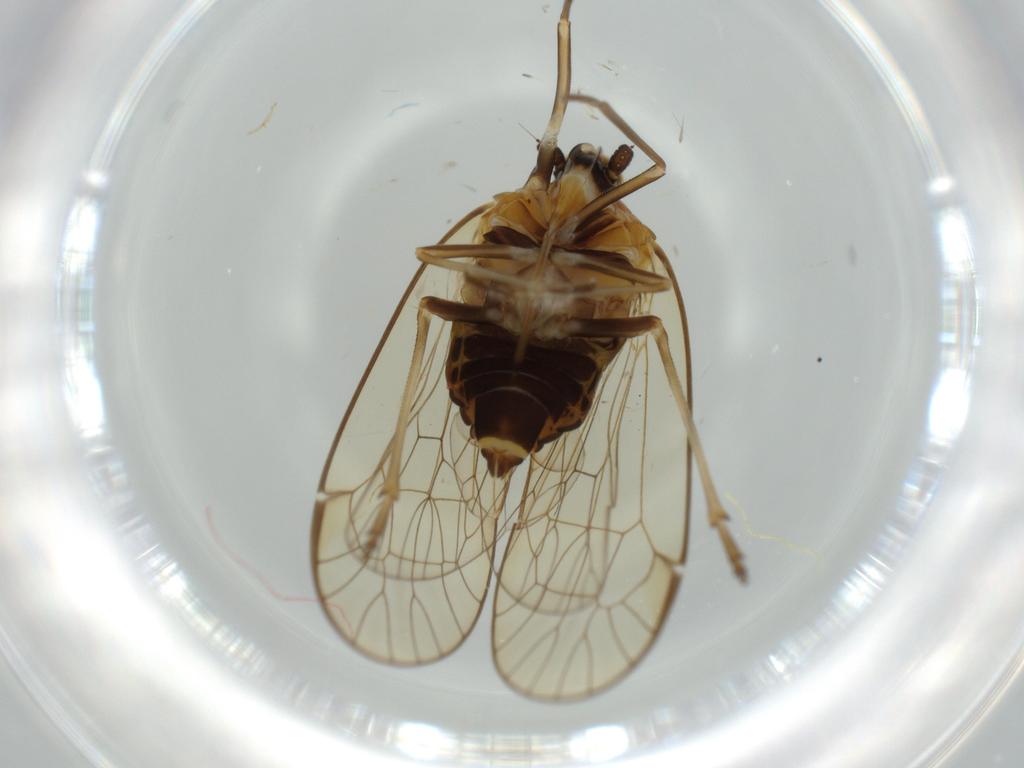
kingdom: Animalia
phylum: Arthropoda
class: Insecta
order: Hemiptera
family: Kinnaridae
